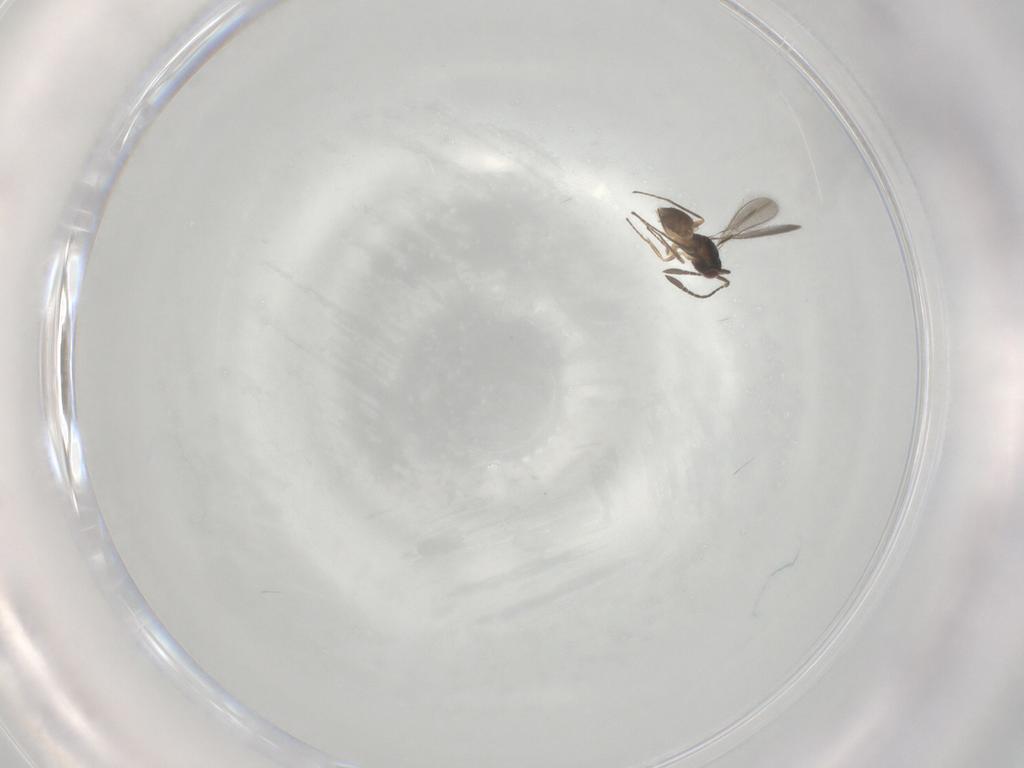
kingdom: Animalia
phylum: Arthropoda
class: Insecta
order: Hymenoptera
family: Mymaridae
